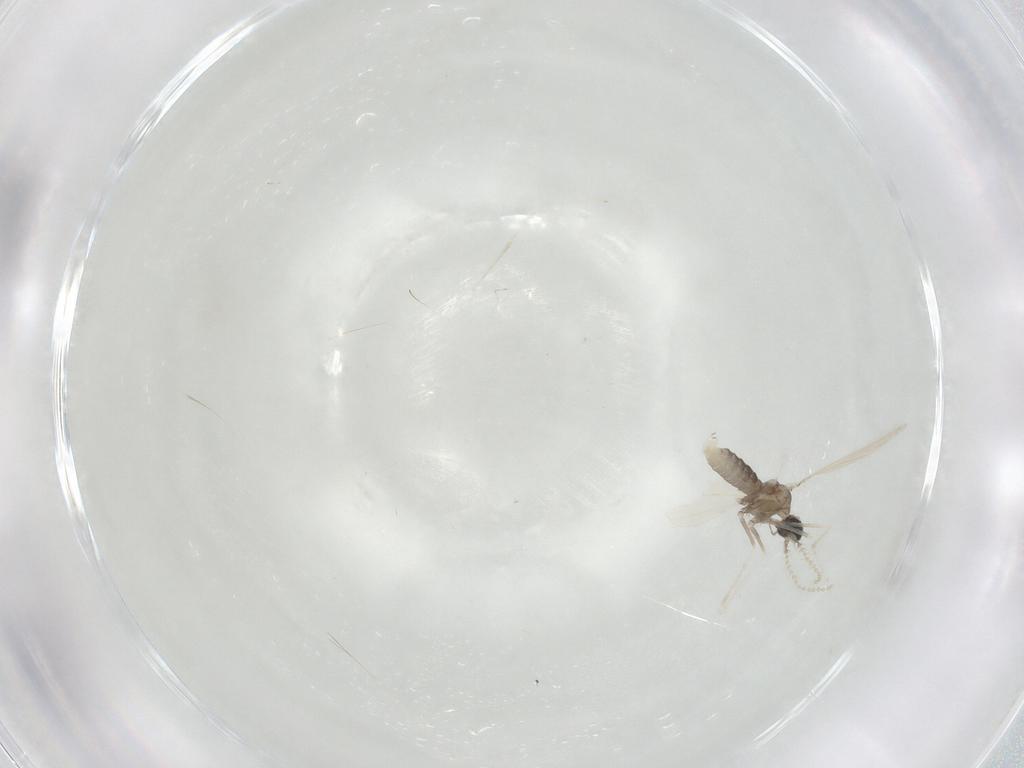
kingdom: Animalia
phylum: Arthropoda
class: Insecta
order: Diptera
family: Cecidomyiidae
